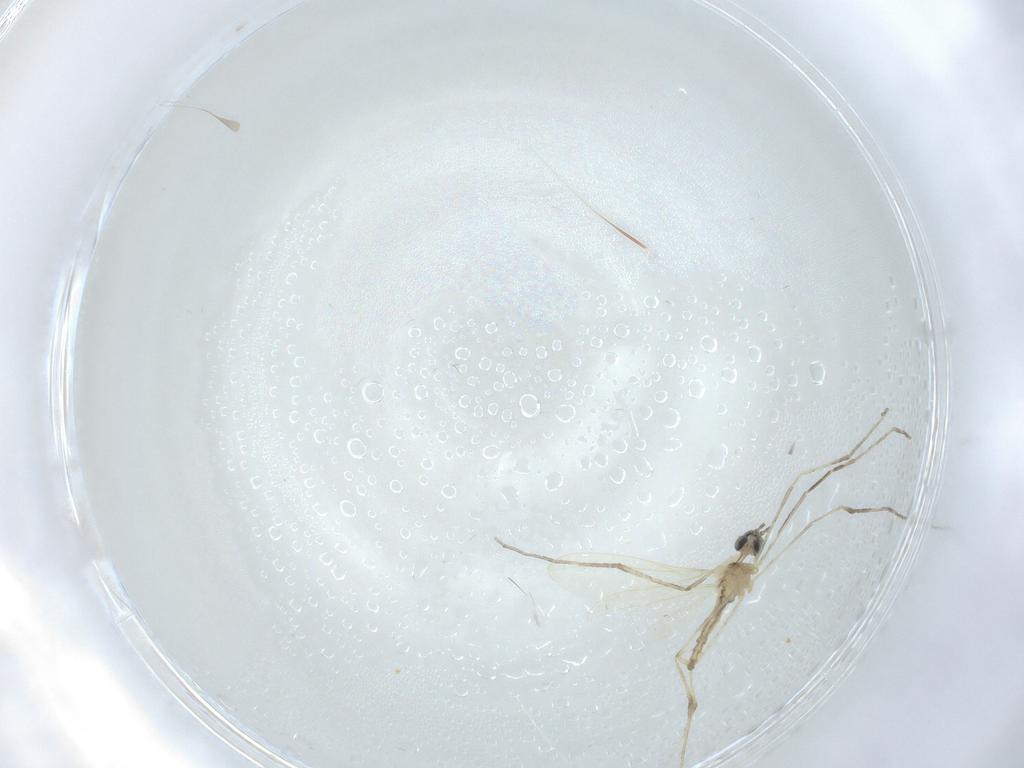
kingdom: Animalia
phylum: Arthropoda
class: Insecta
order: Diptera
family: Cecidomyiidae
